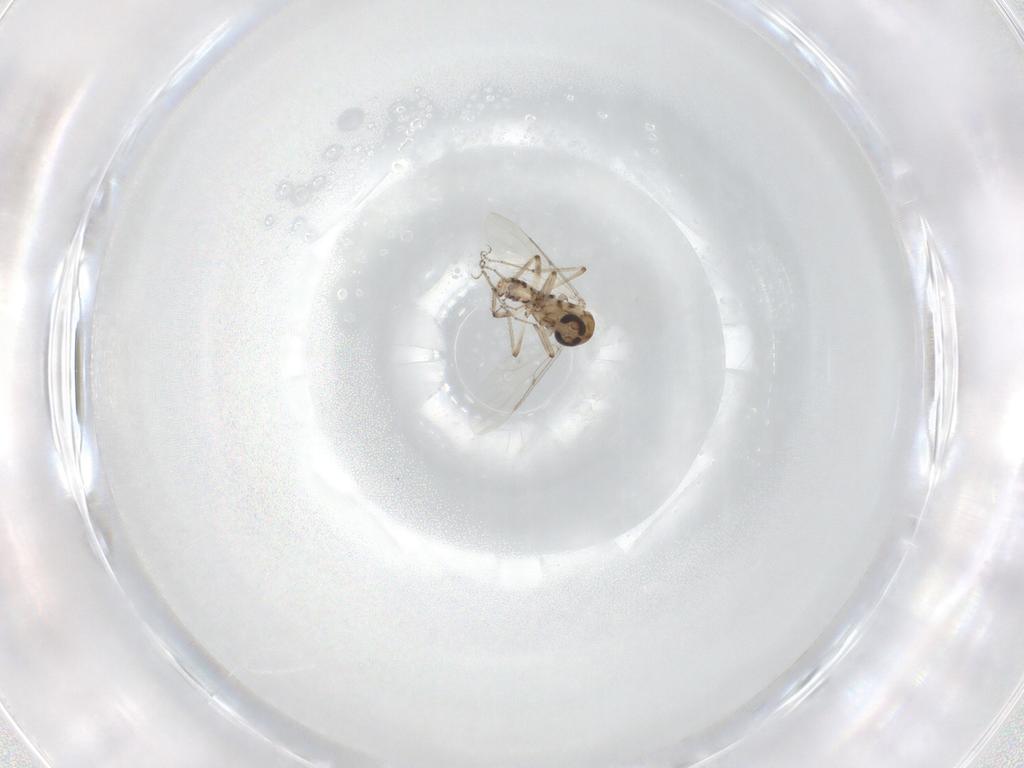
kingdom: Animalia
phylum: Arthropoda
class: Insecta
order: Diptera
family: Ceratopogonidae
